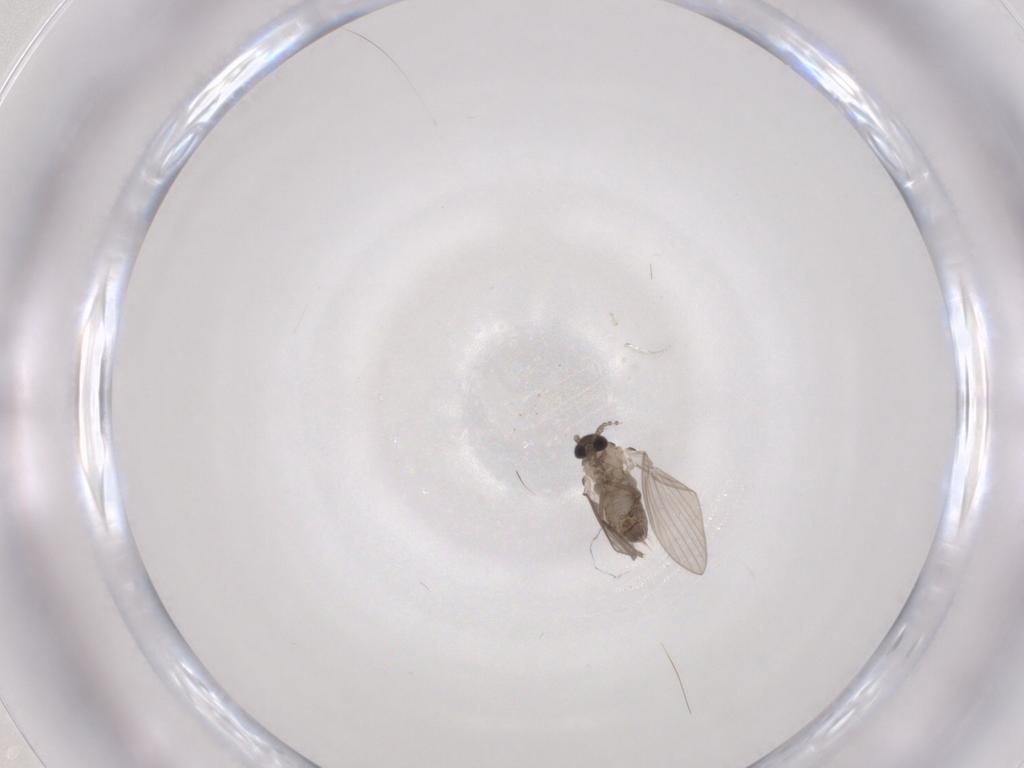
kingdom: Animalia
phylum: Arthropoda
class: Insecta
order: Diptera
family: Psychodidae
